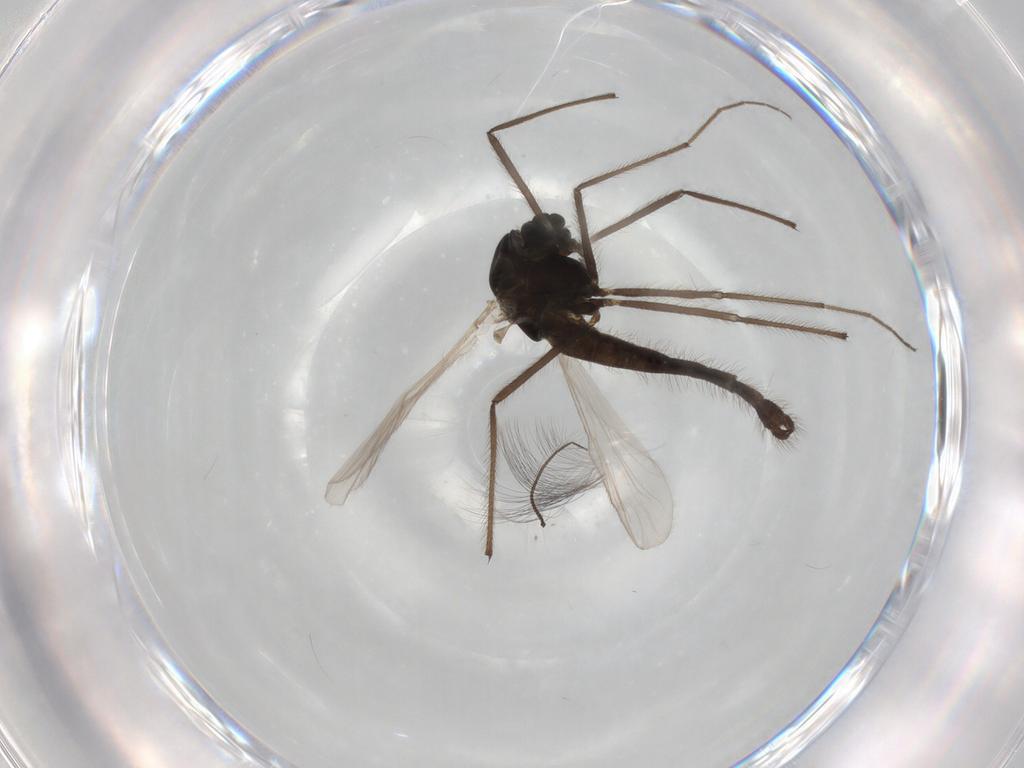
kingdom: Animalia
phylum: Arthropoda
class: Insecta
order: Diptera
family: Chironomidae
